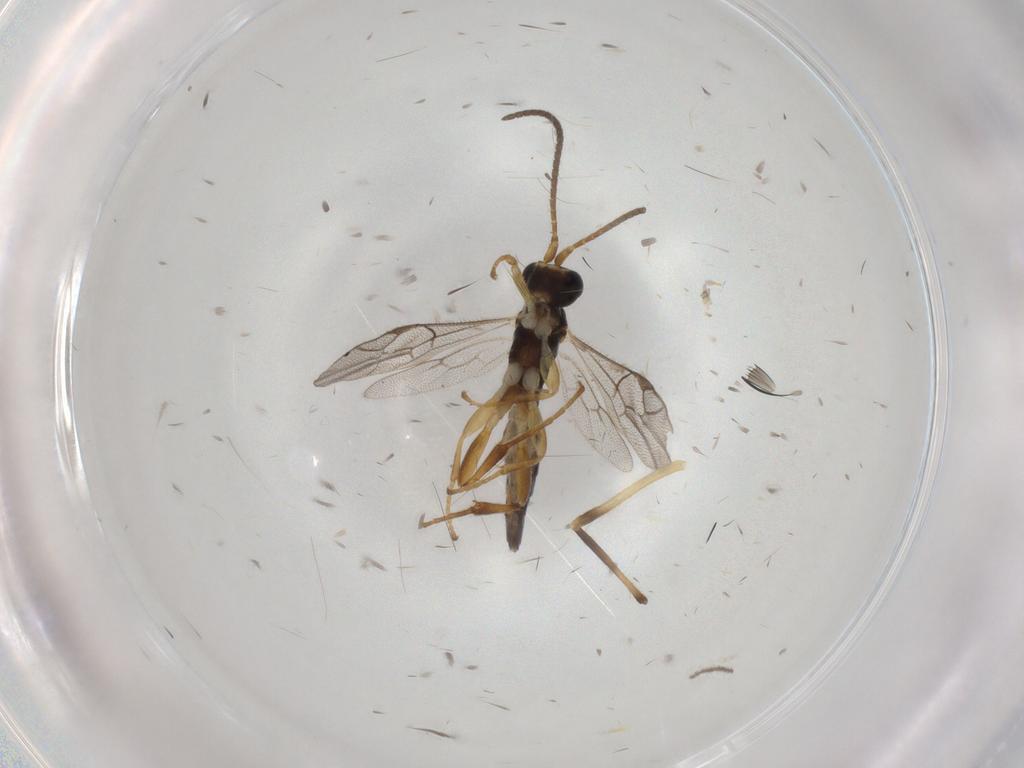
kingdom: Animalia
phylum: Arthropoda
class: Insecta
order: Hymenoptera
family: Ichneumonidae
